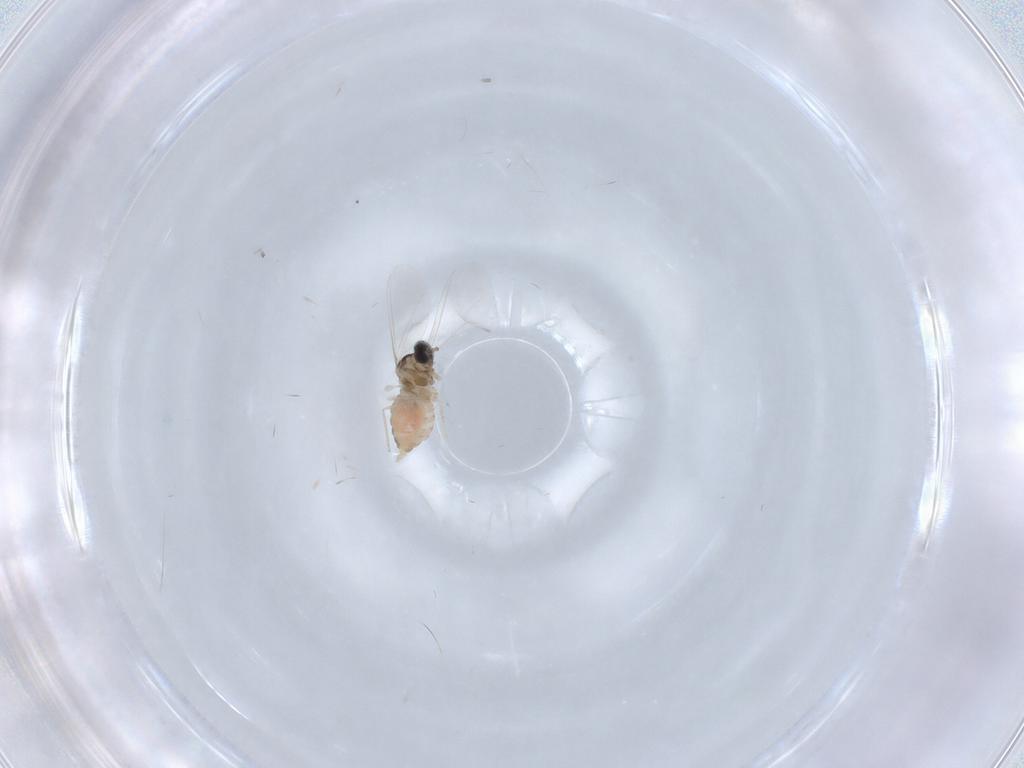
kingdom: Animalia
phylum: Arthropoda
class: Insecta
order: Diptera
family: Cecidomyiidae
